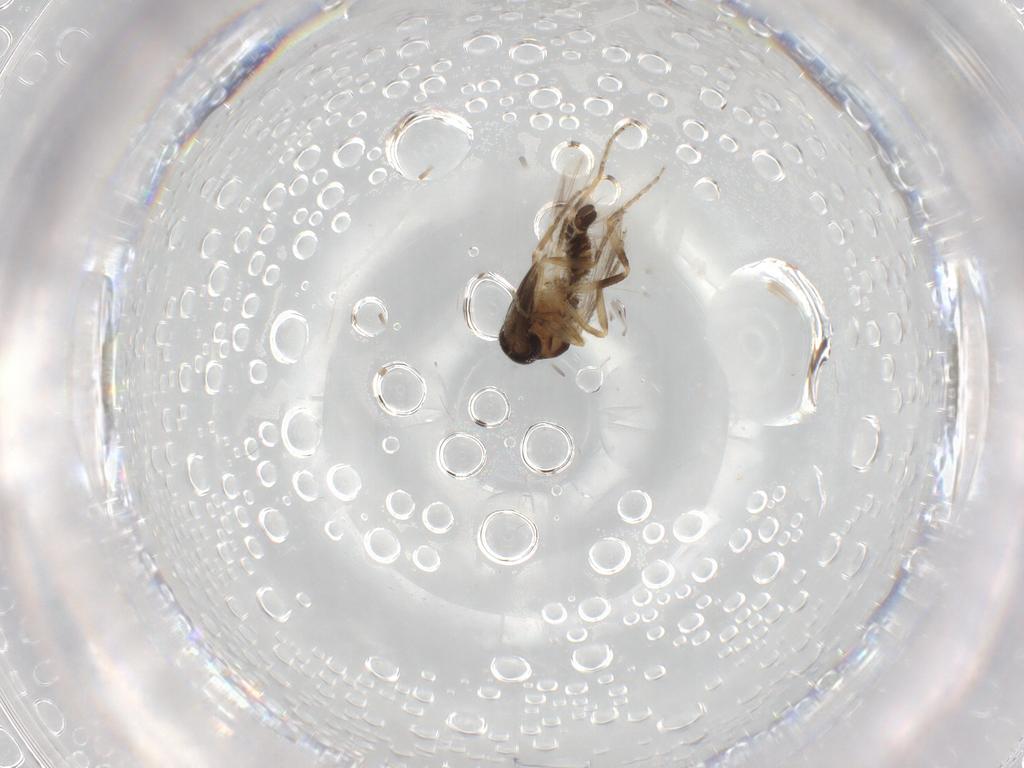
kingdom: Animalia
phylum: Arthropoda
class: Insecta
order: Diptera
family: Ceratopogonidae
